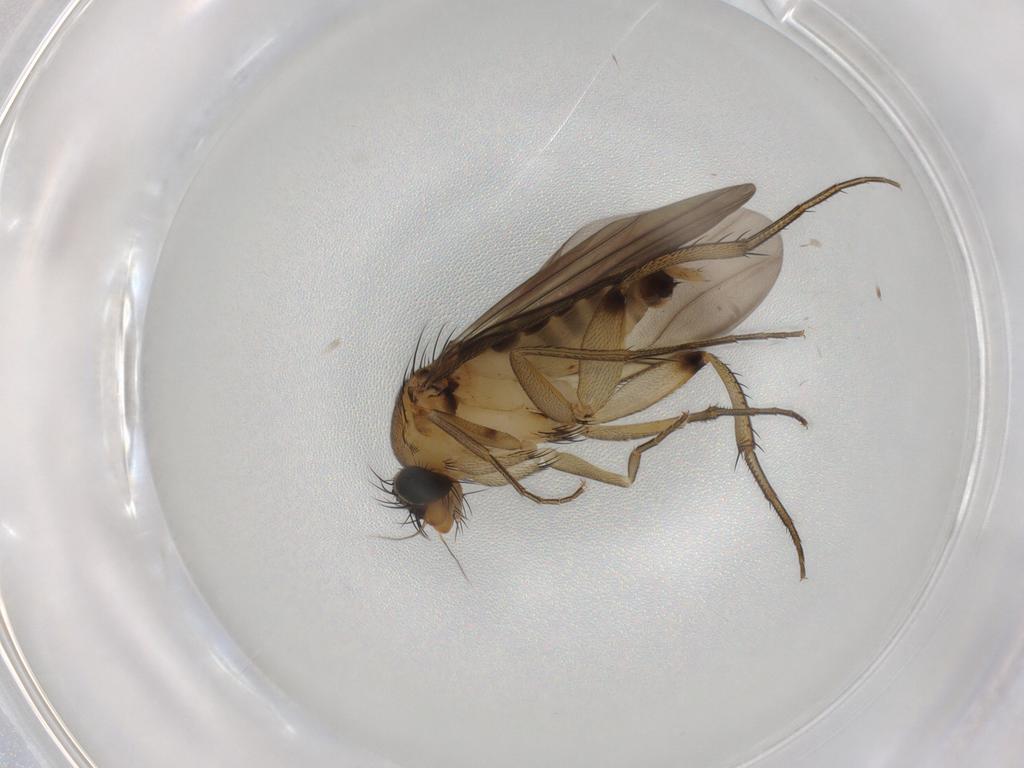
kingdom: Animalia
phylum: Arthropoda
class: Insecta
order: Diptera
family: Phoridae
